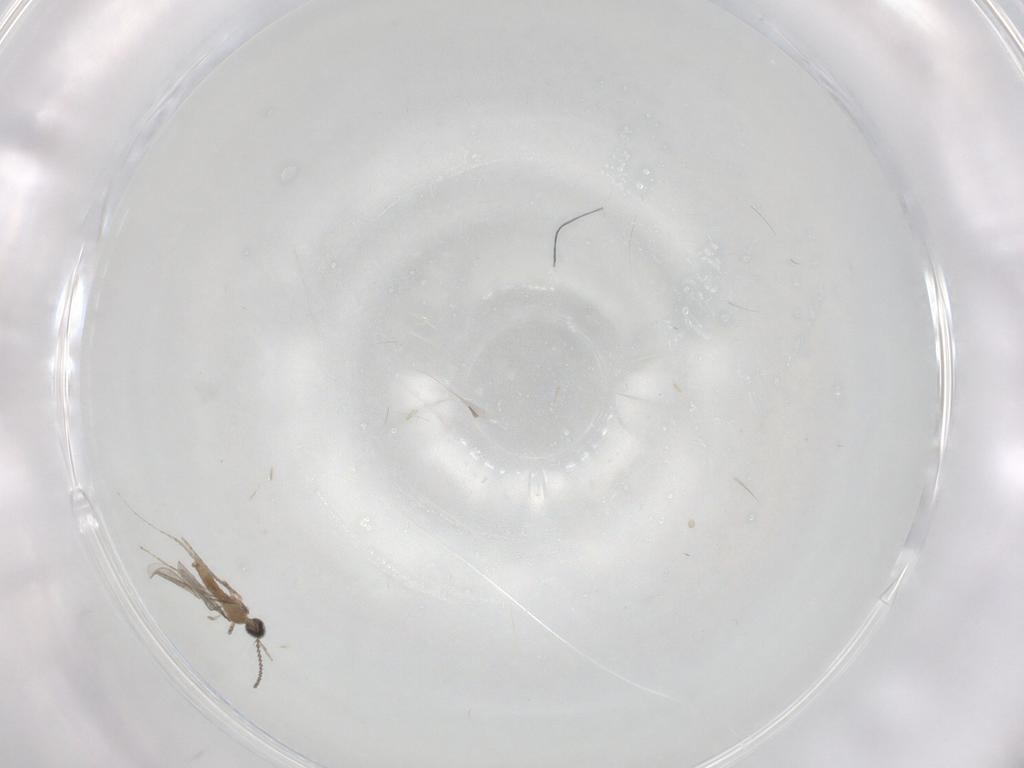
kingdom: Animalia
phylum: Arthropoda
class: Insecta
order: Diptera
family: Cecidomyiidae
